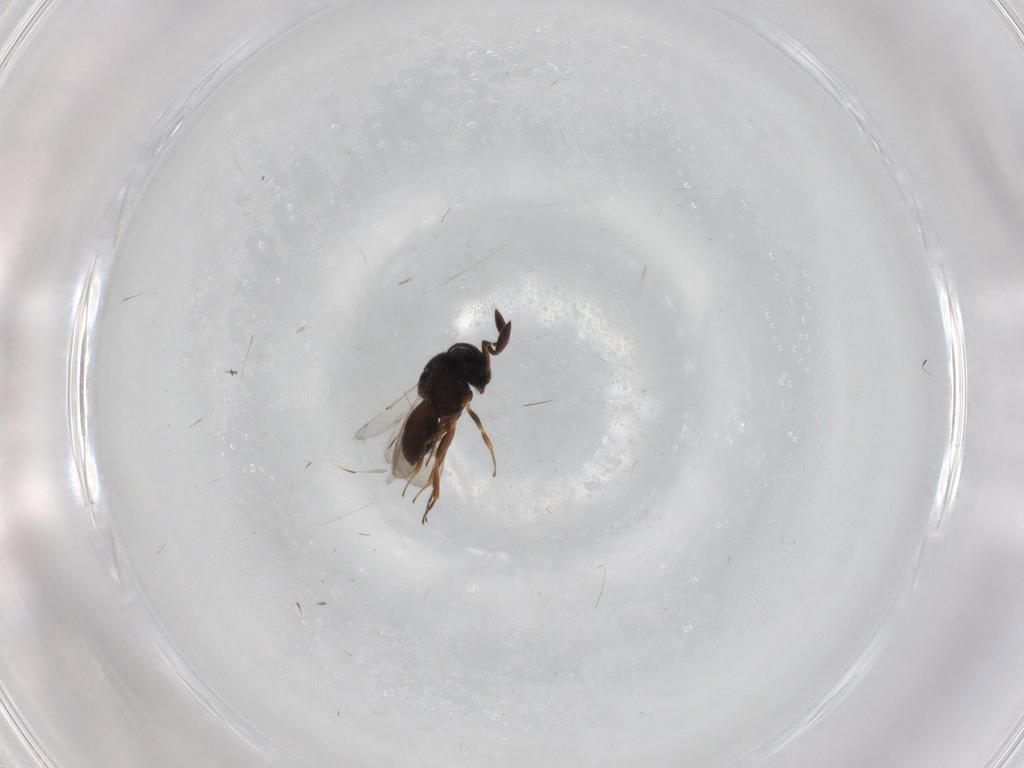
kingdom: Animalia
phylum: Arthropoda
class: Insecta
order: Hymenoptera
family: Scelionidae
